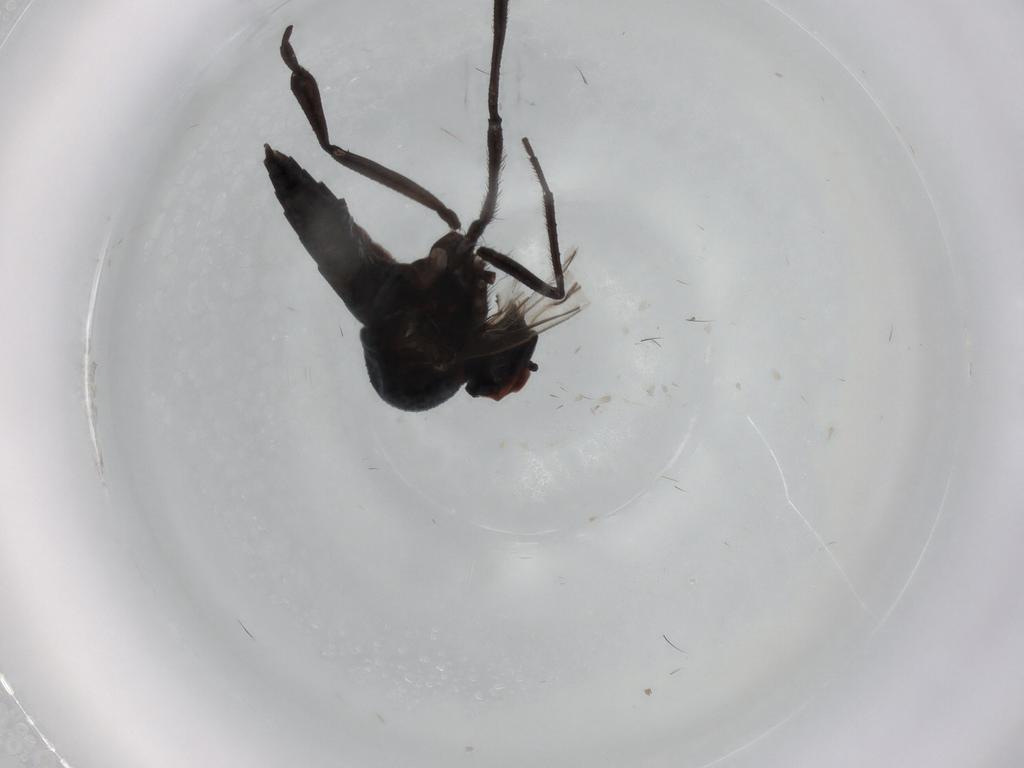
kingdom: Animalia
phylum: Arthropoda
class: Insecta
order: Diptera
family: Hybotidae
